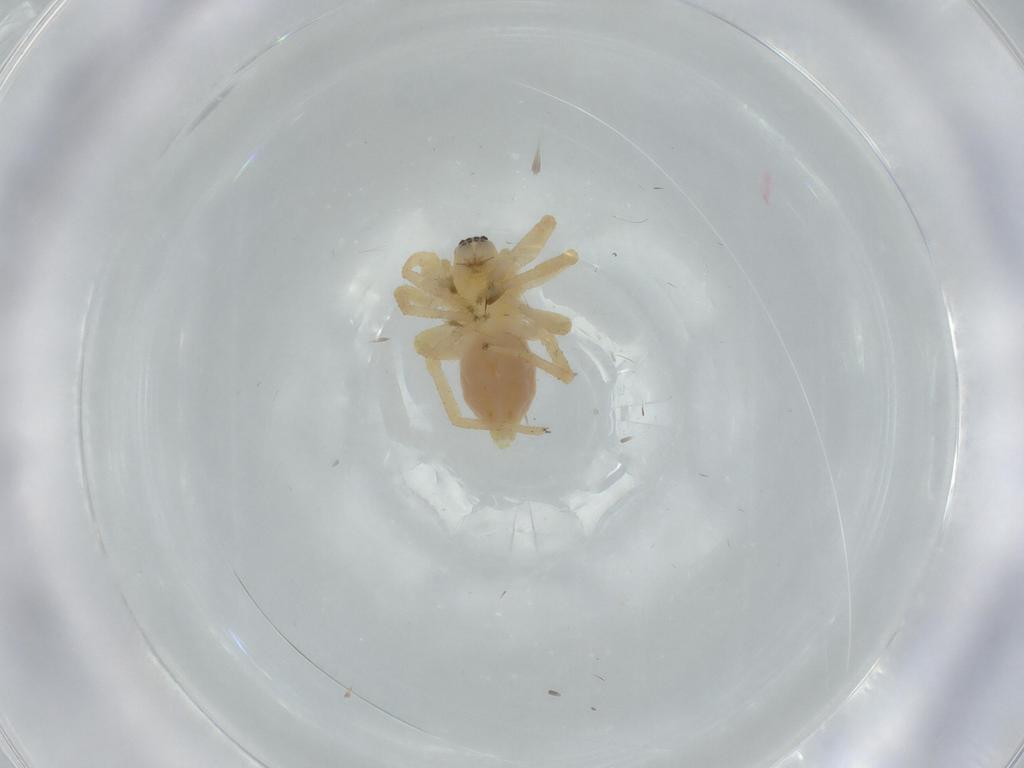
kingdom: Animalia
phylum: Arthropoda
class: Arachnida
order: Araneae
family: Anyphaenidae
